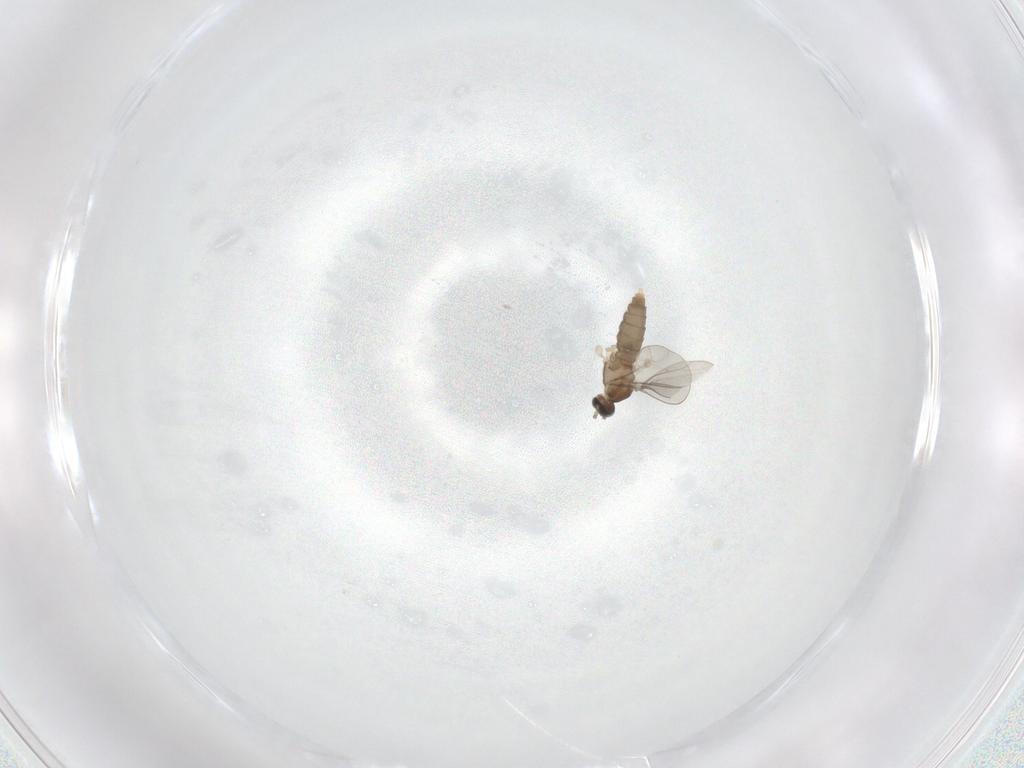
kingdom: Animalia
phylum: Arthropoda
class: Insecta
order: Diptera
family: Cecidomyiidae
